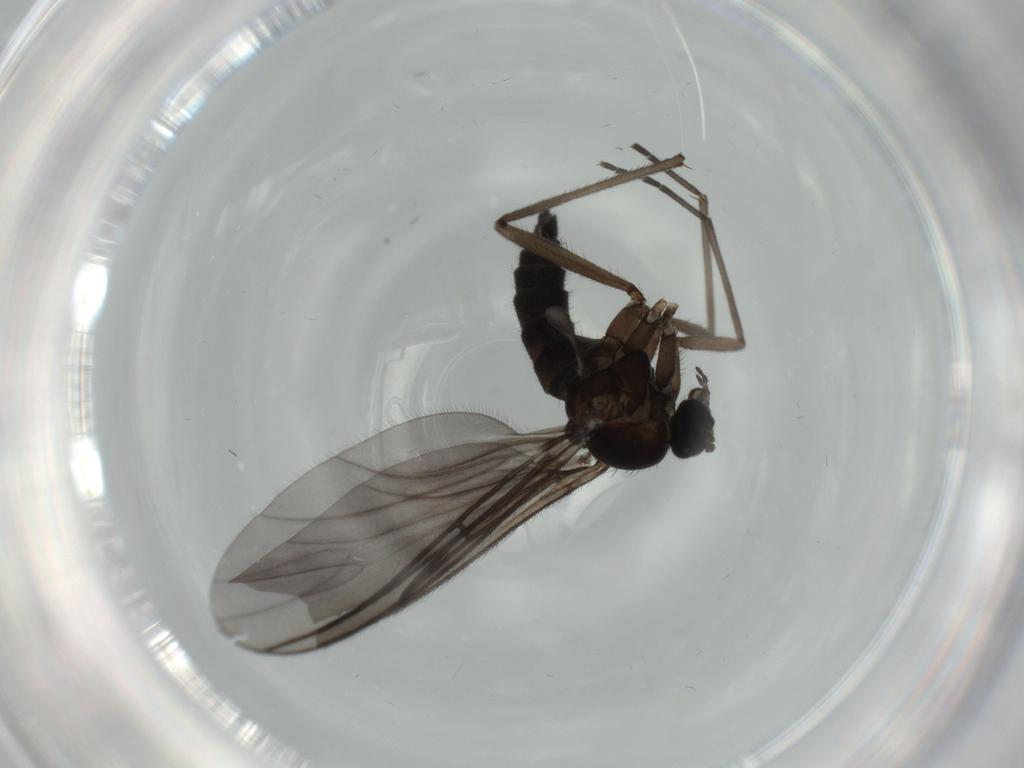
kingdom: Animalia
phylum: Arthropoda
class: Insecta
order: Diptera
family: Sciaridae
